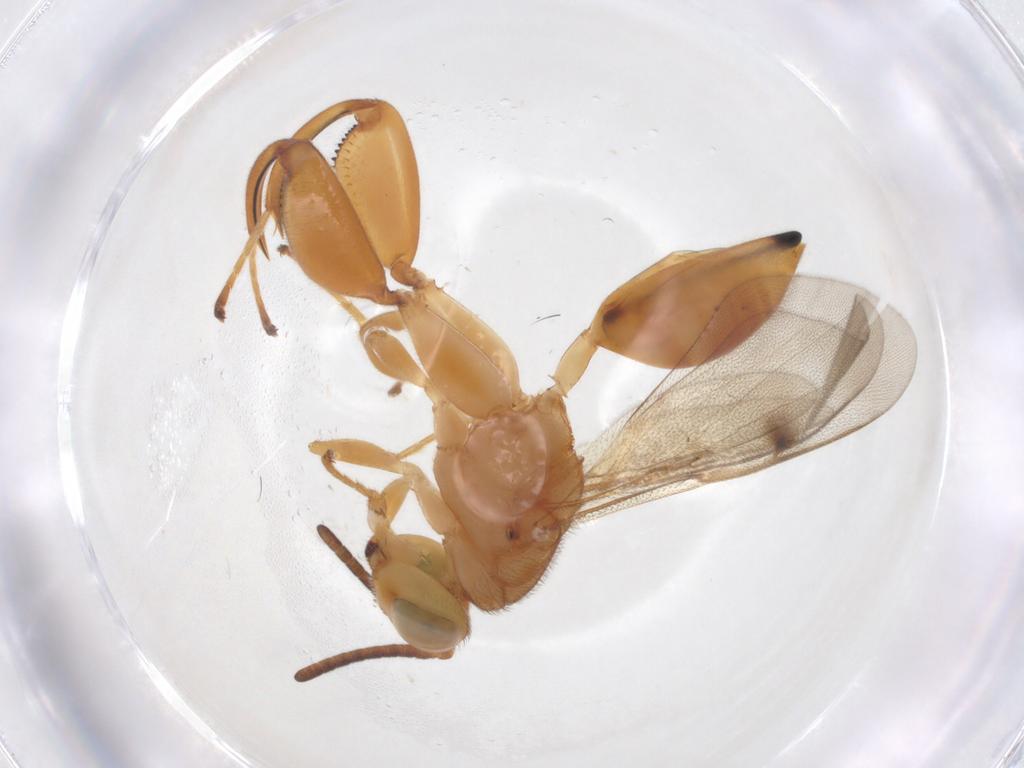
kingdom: Animalia
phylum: Arthropoda
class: Insecta
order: Hymenoptera
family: Chalcididae
